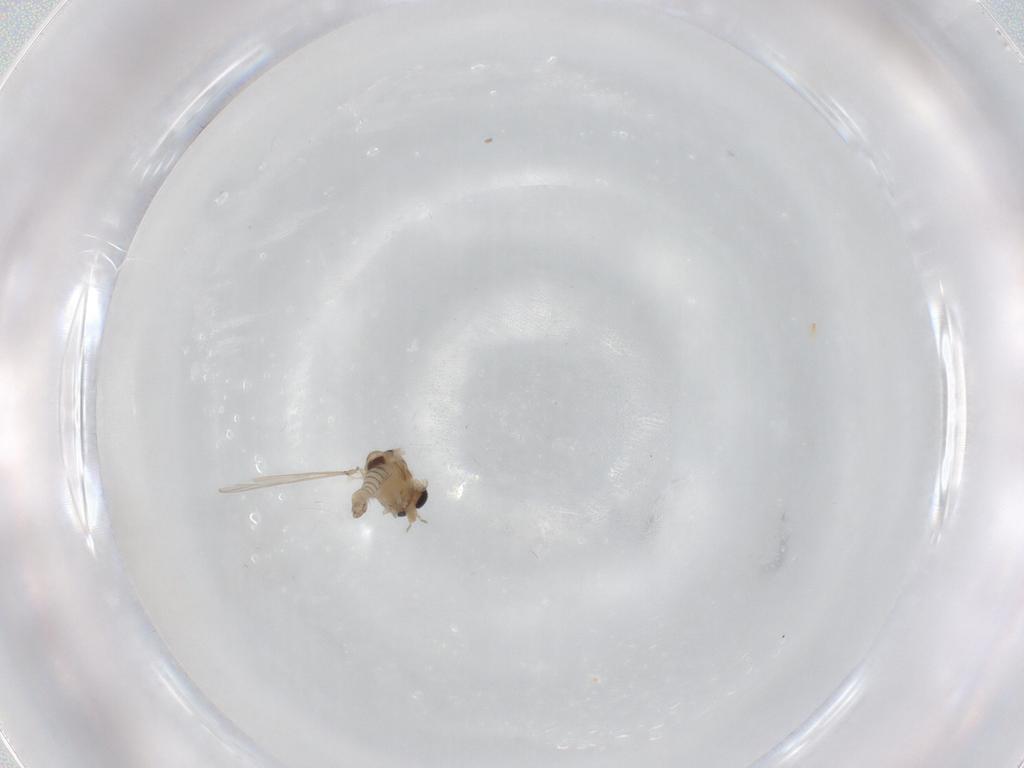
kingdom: Animalia
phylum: Arthropoda
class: Insecta
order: Diptera
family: Chironomidae
